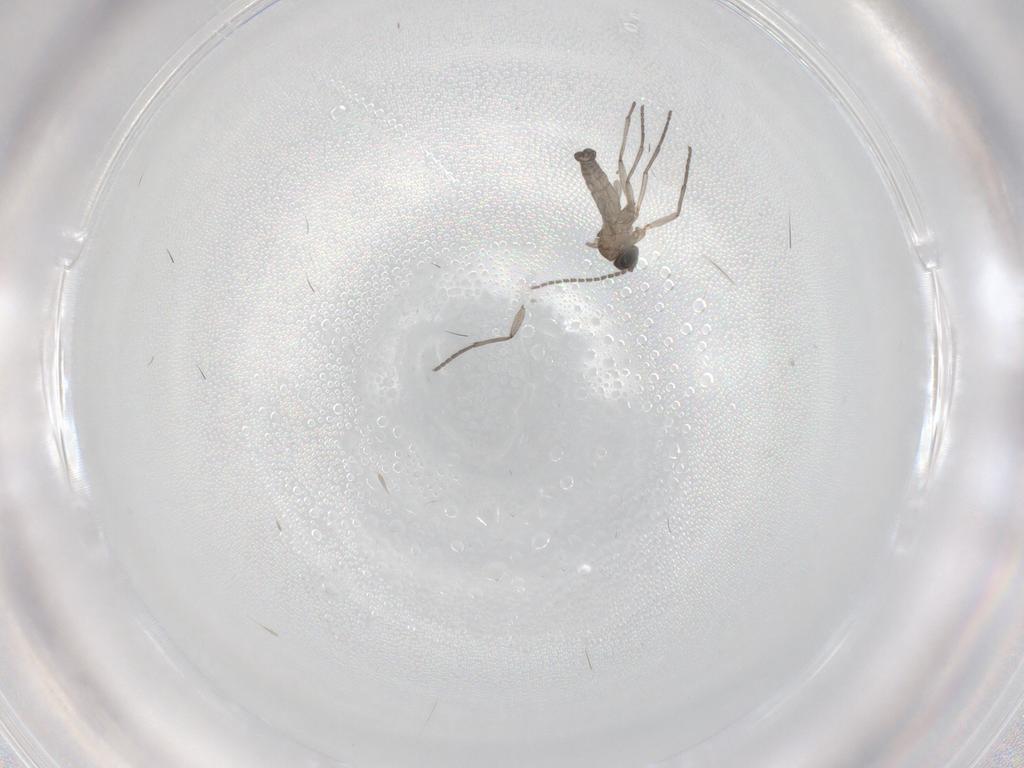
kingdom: Animalia
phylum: Arthropoda
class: Insecta
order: Diptera
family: Sciaridae
